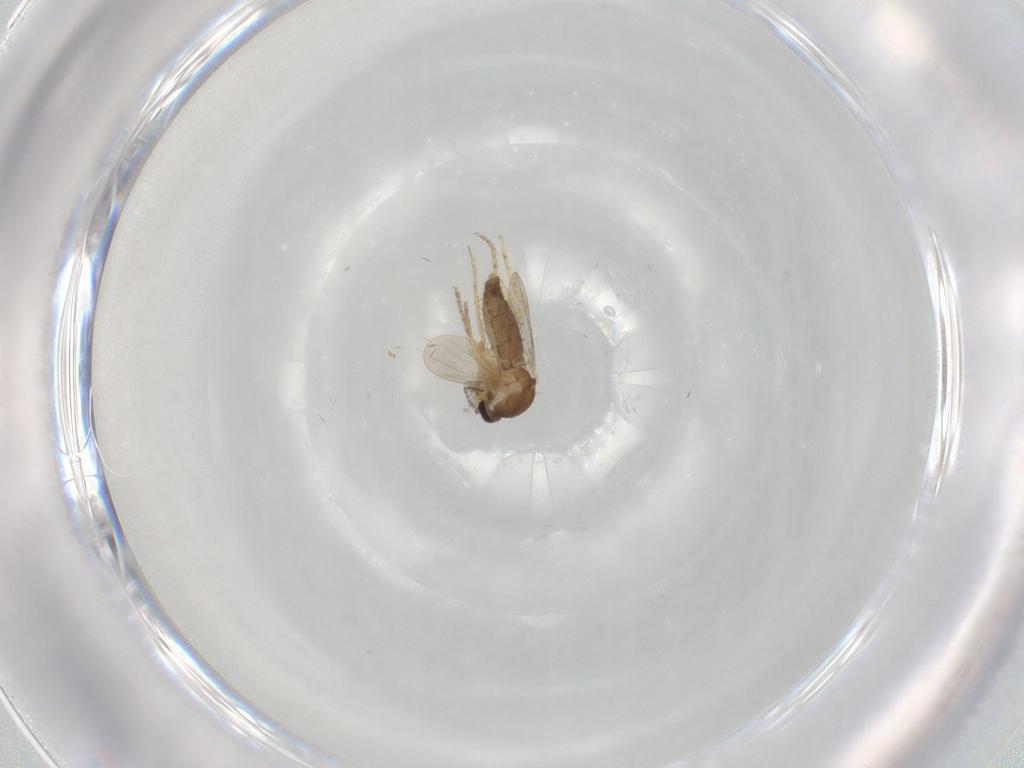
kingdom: Animalia
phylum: Arthropoda
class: Insecta
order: Diptera
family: Ceratopogonidae
